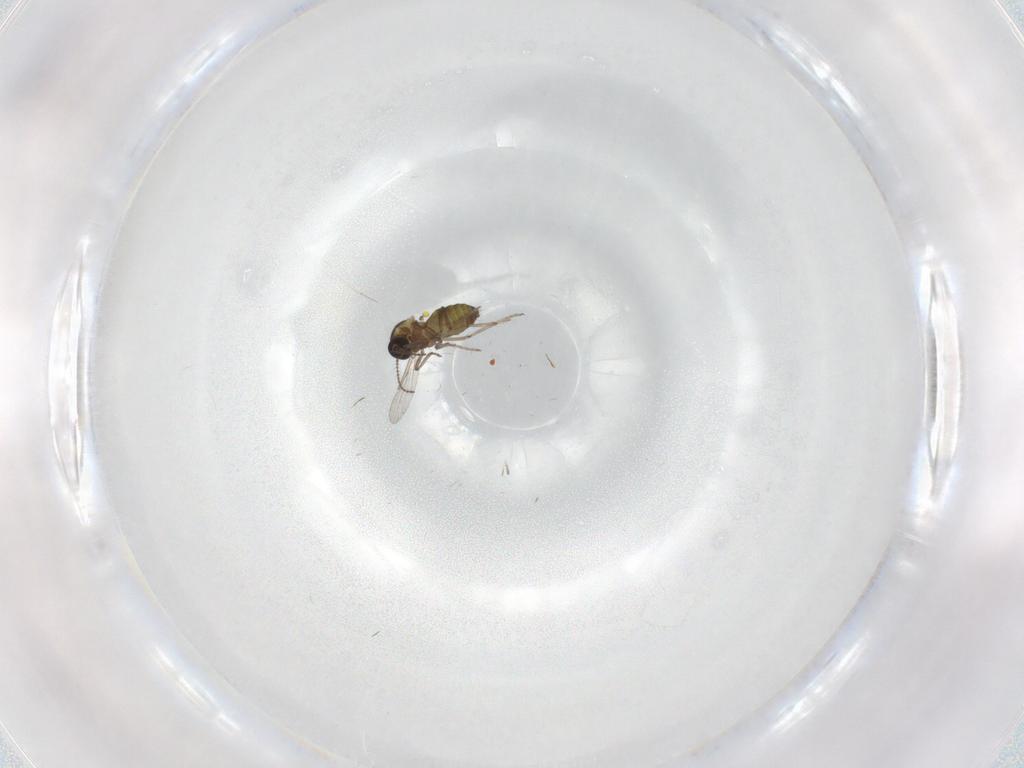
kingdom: Animalia
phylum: Arthropoda
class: Insecta
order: Diptera
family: Ceratopogonidae
